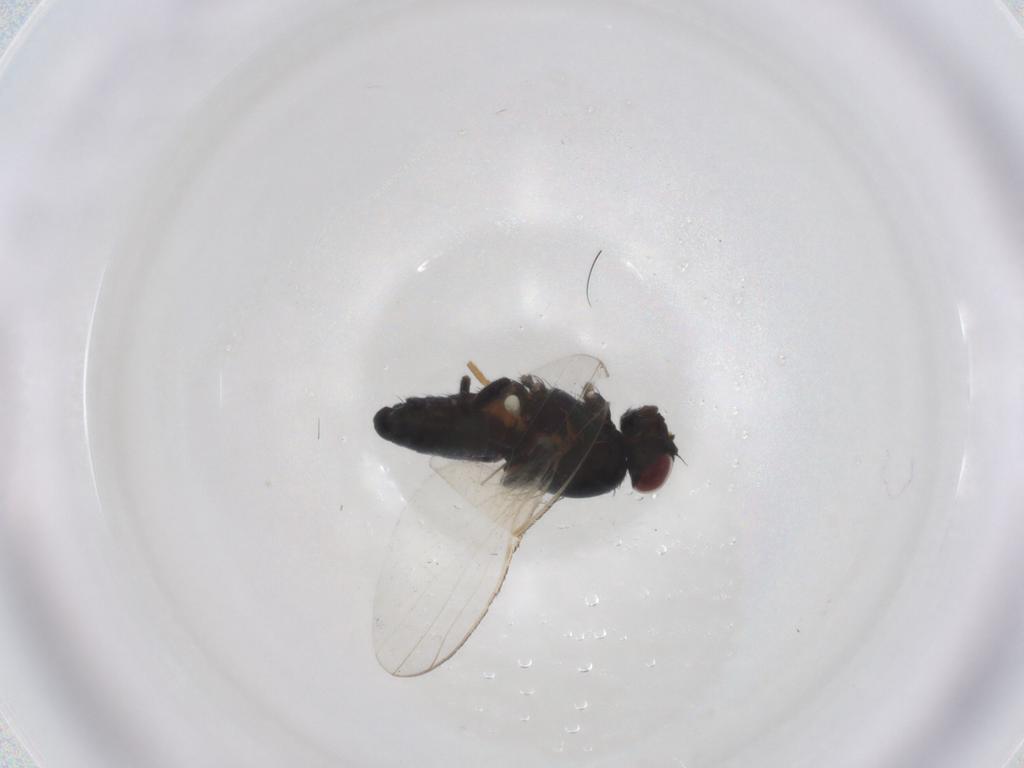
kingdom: Animalia
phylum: Arthropoda
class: Insecta
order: Diptera
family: Carnidae
